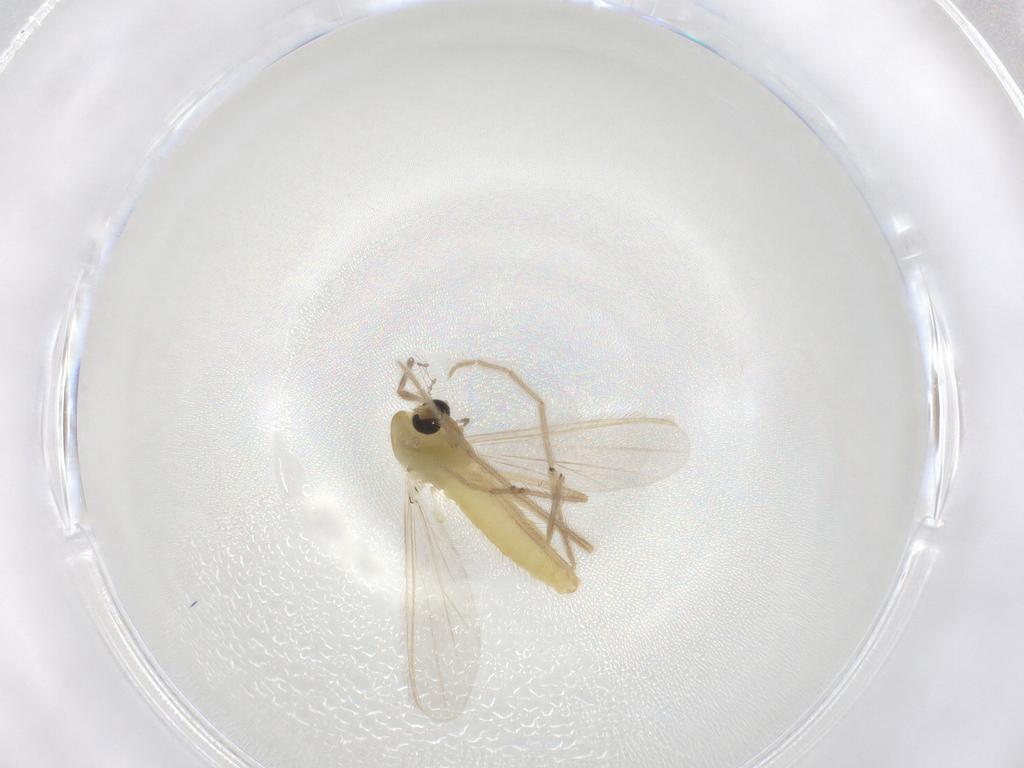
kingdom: Animalia
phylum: Arthropoda
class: Insecta
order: Diptera
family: Chironomidae
